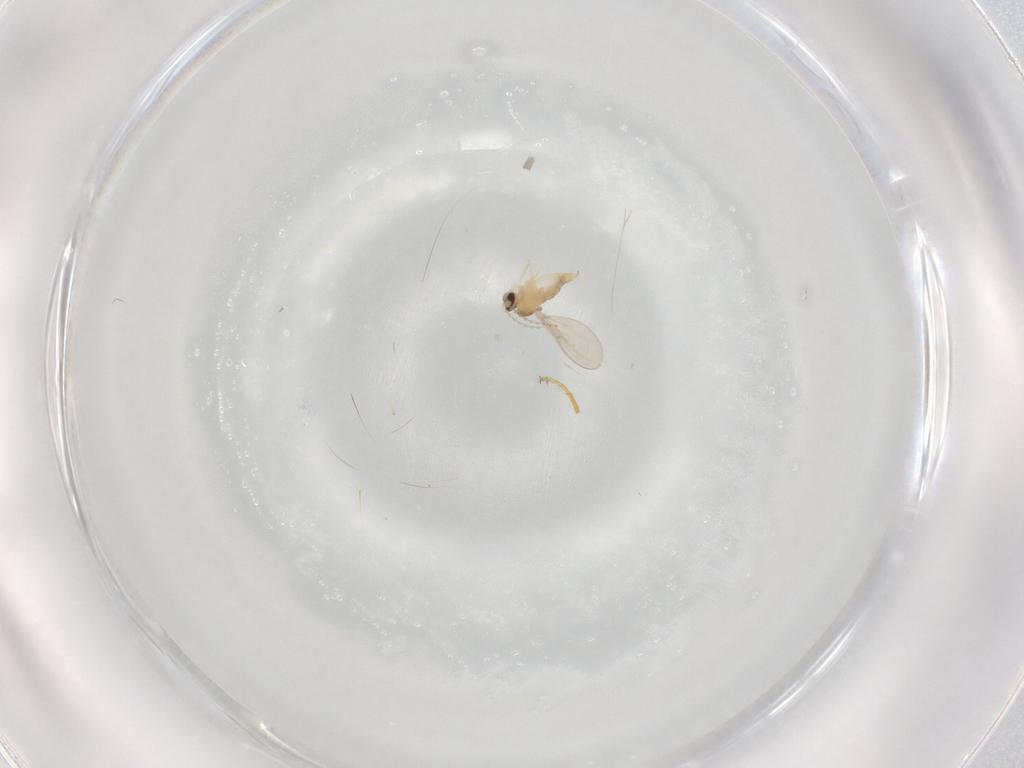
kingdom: Animalia
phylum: Arthropoda
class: Insecta
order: Diptera
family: Cecidomyiidae
